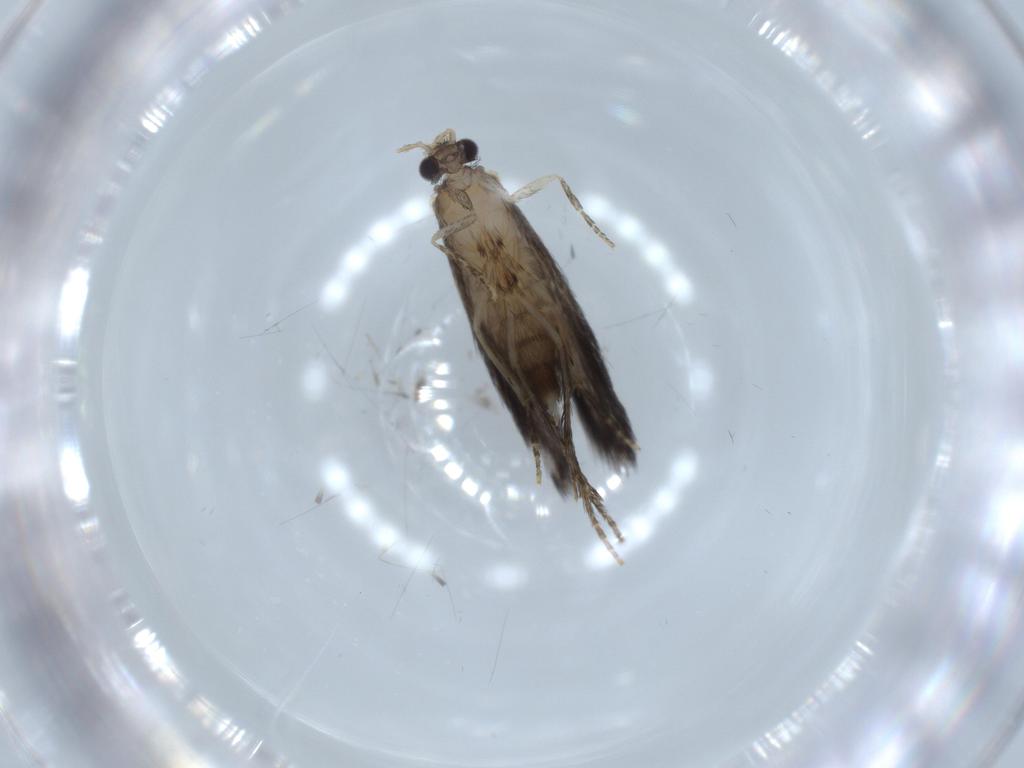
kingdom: Animalia
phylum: Arthropoda
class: Insecta
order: Trichoptera
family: Hydroptilidae
